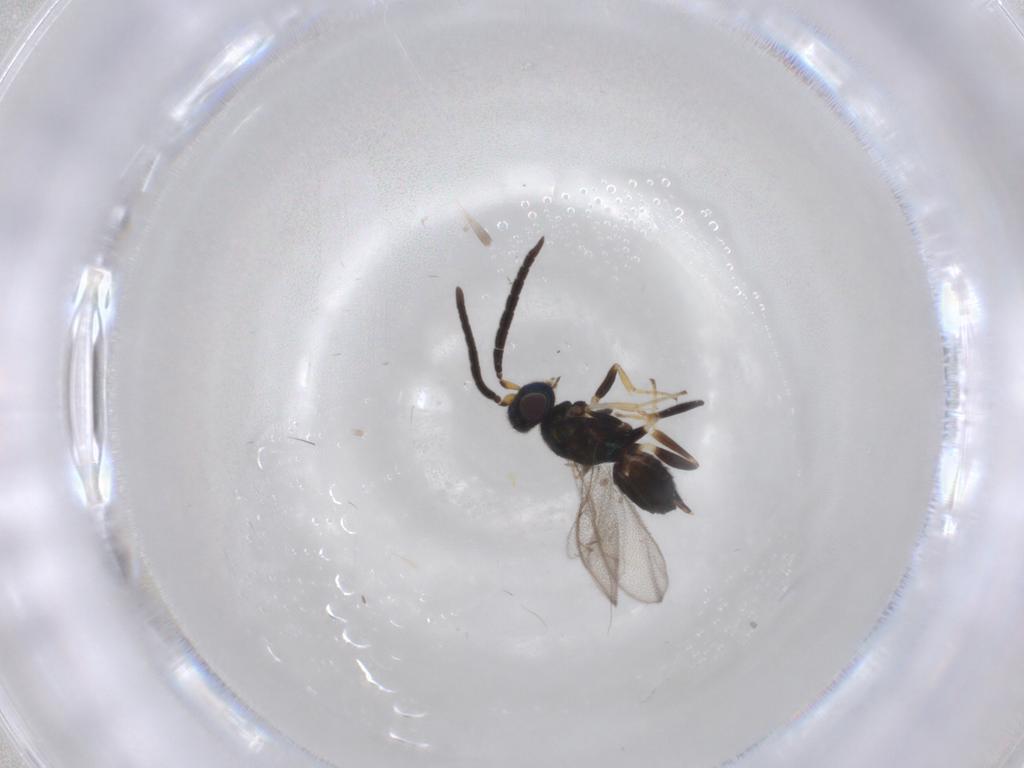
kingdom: Animalia
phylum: Arthropoda
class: Insecta
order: Hymenoptera
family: Eupelmidae
